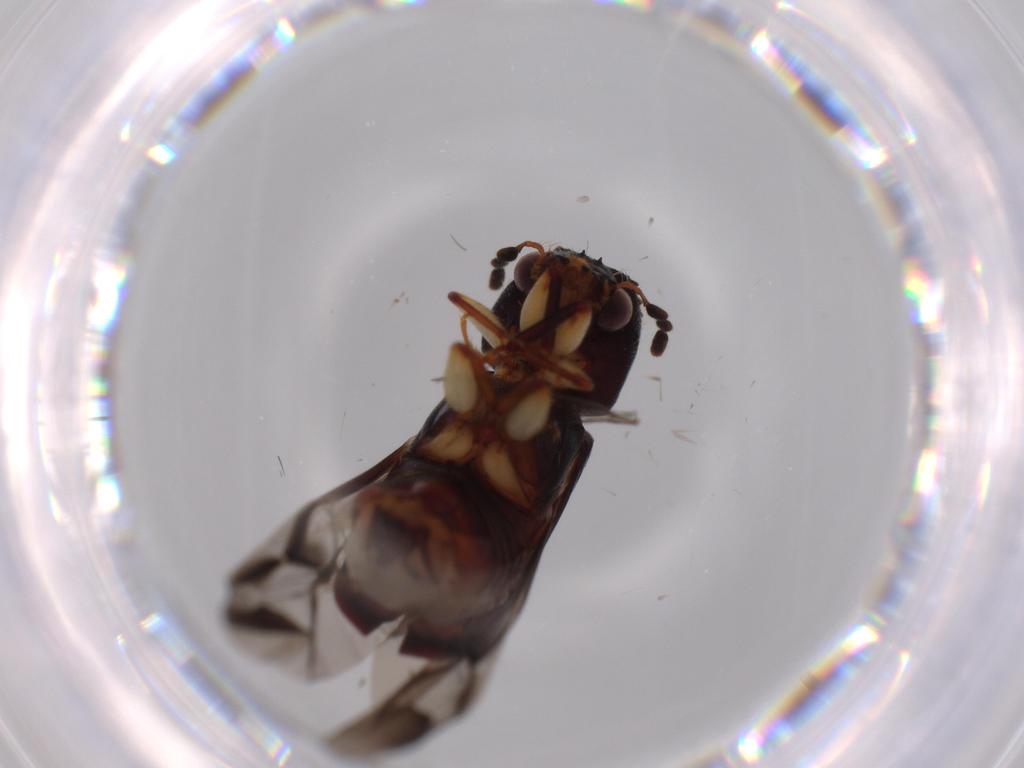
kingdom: Animalia
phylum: Arthropoda
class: Insecta
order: Coleoptera
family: Bostrichidae
